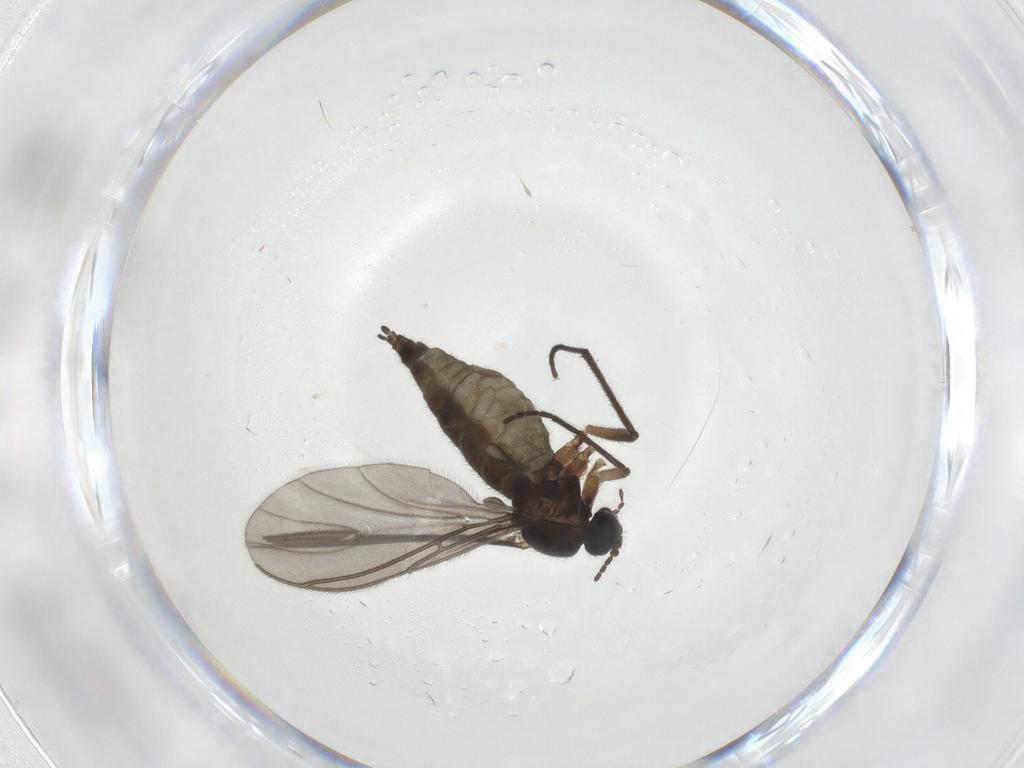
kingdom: Animalia
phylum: Arthropoda
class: Insecta
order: Diptera
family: Sciaridae
